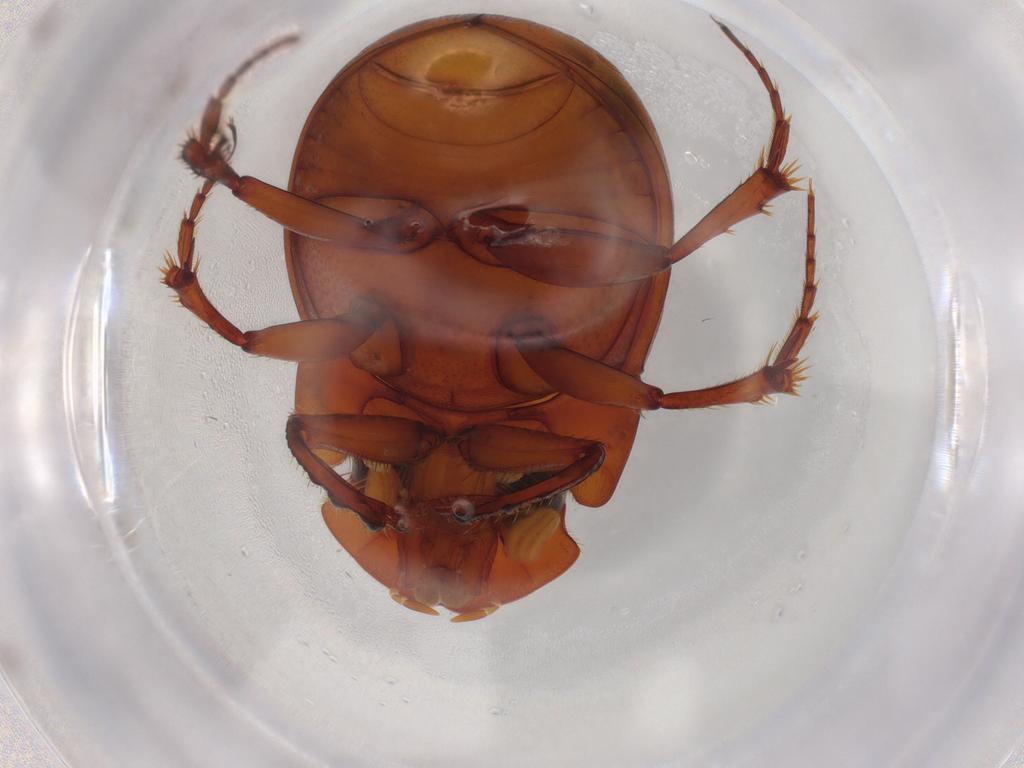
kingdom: Animalia
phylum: Arthropoda
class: Insecta
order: Coleoptera
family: Scarabaeidae
